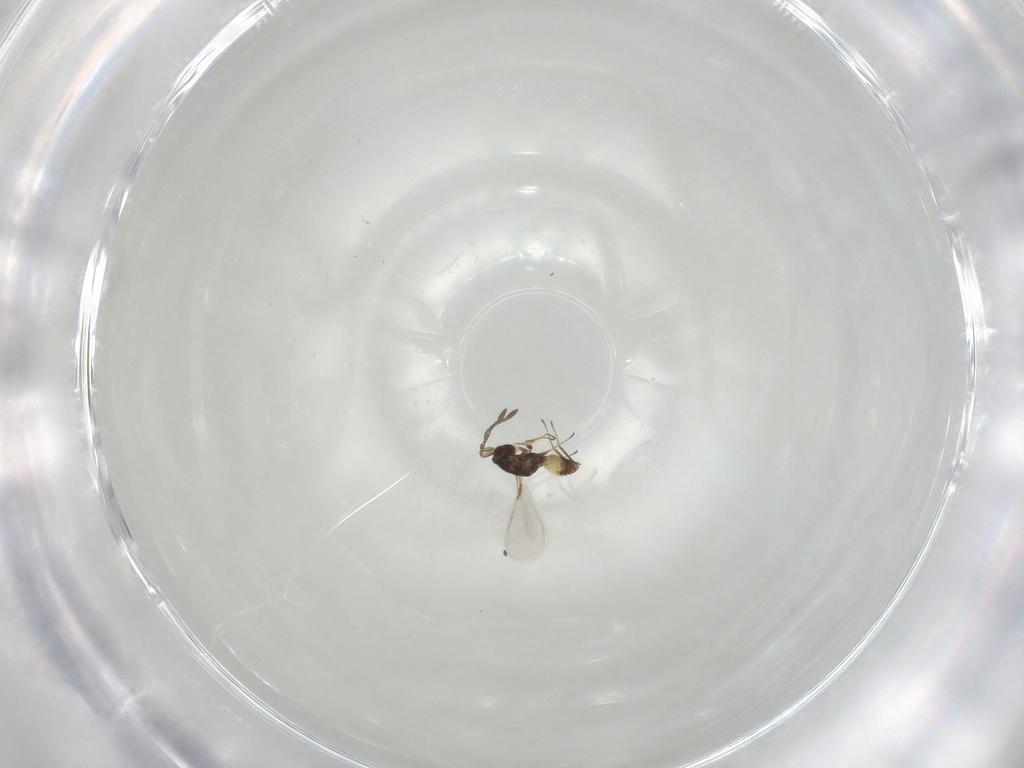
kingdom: Animalia
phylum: Arthropoda
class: Insecta
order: Hymenoptera
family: Mymaridae
